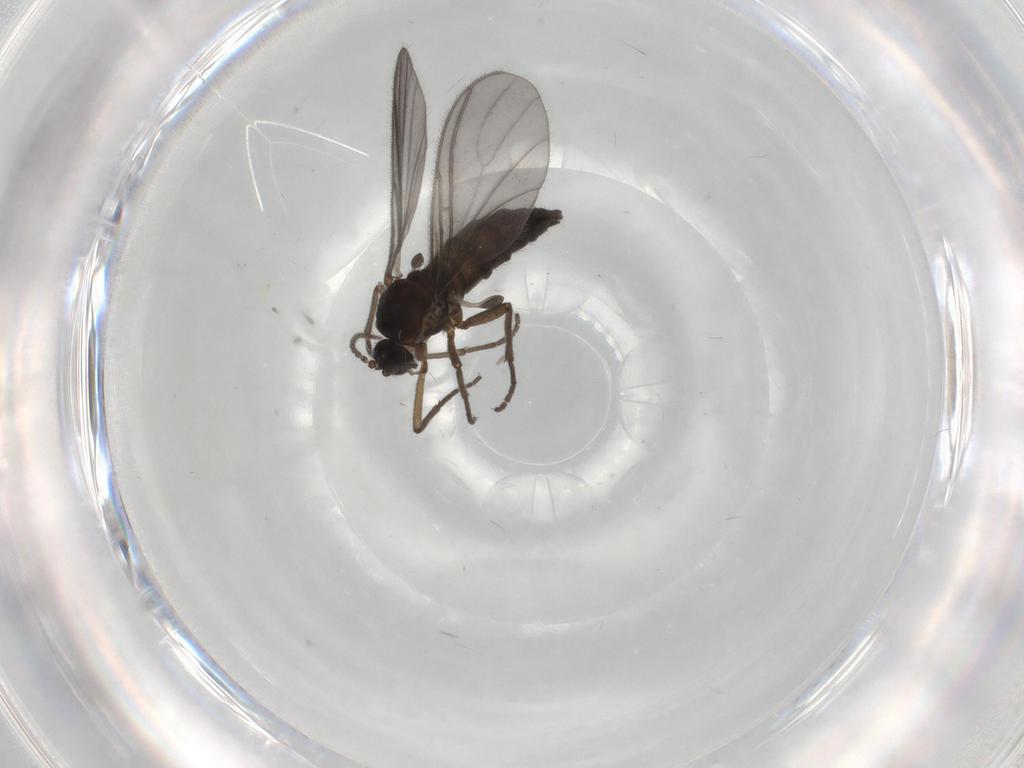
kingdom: Animalia
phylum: Arthropoda
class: Insecta
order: Diptera
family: Sciaridae
